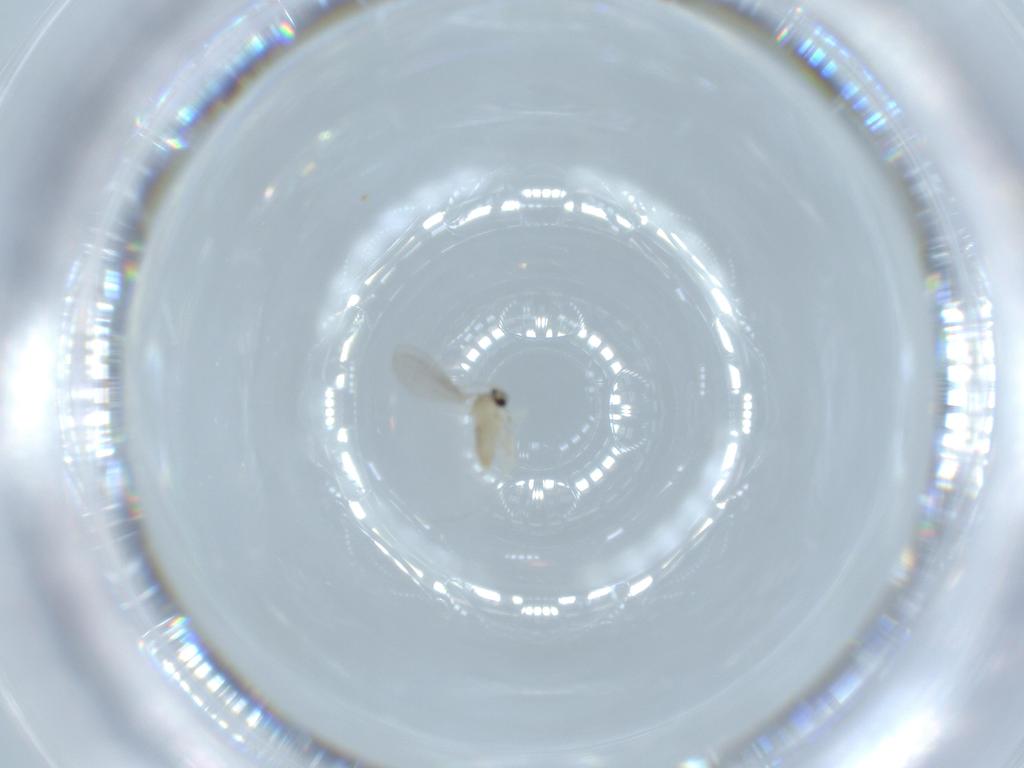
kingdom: Animalia
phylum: Arthropoda
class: Insecta
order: Diptera
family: Cecidomyiidae
